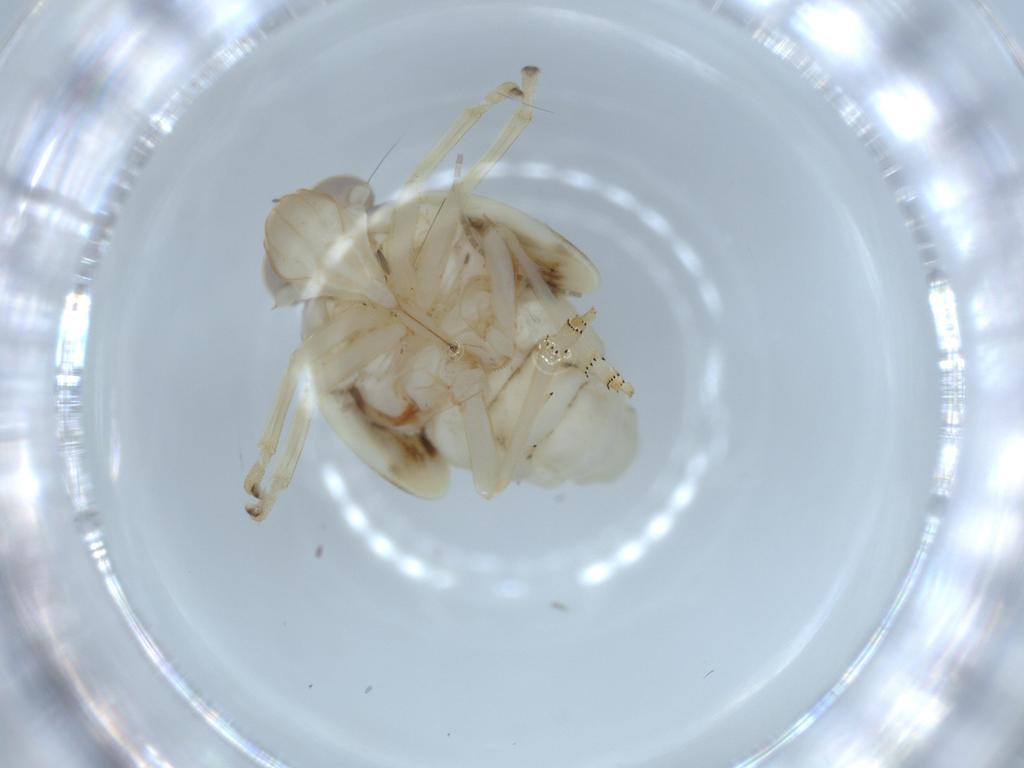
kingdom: Animalia
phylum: Arthropoda
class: Insecta
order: Hemiptera
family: Nogodinidae
